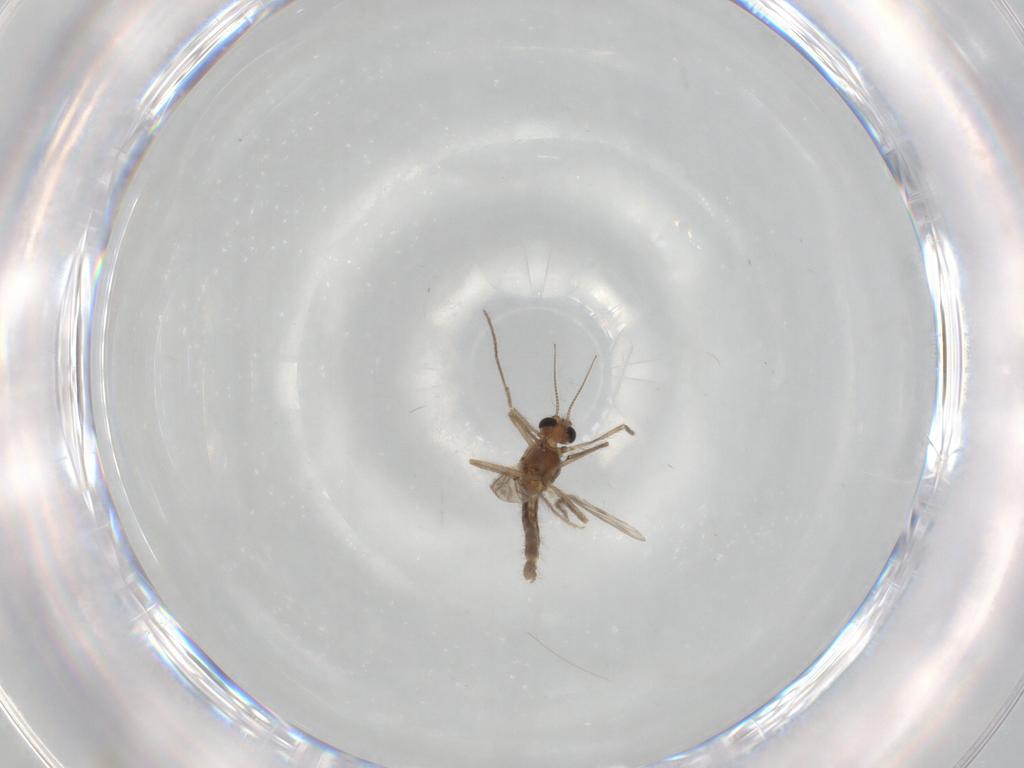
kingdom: Animalia
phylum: Arthropoda
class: Insecta
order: Diptera
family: Chironomidae
